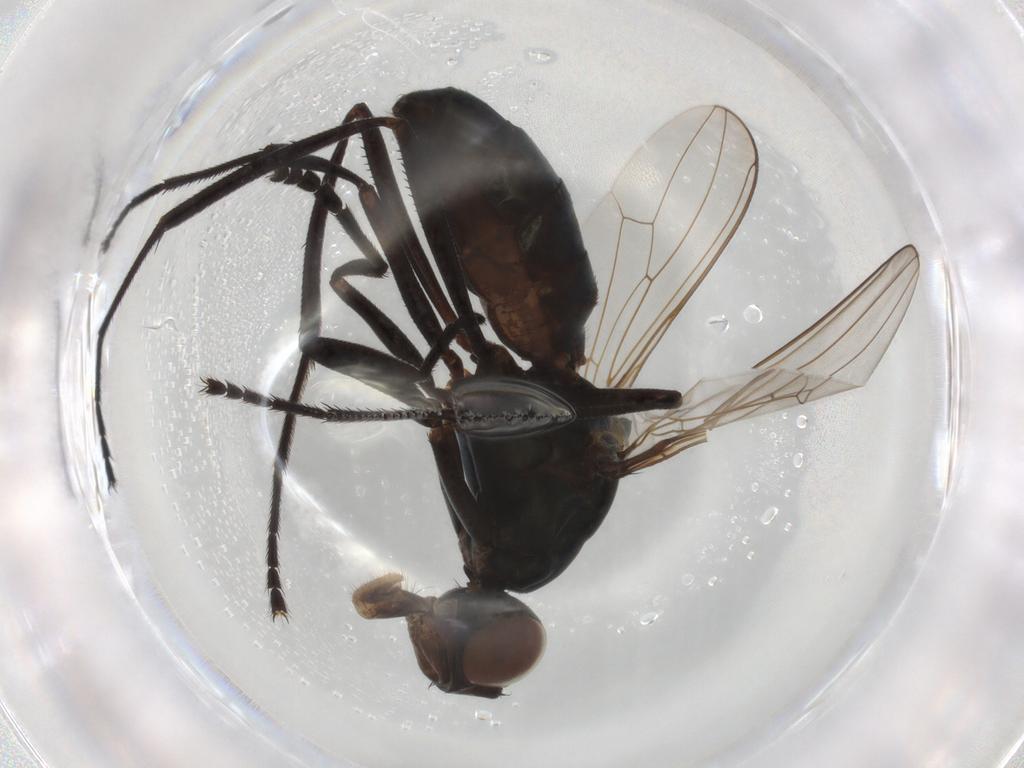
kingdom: Animalia
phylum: Arthropoda
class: Insecta
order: Diptera
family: Sepsidae
